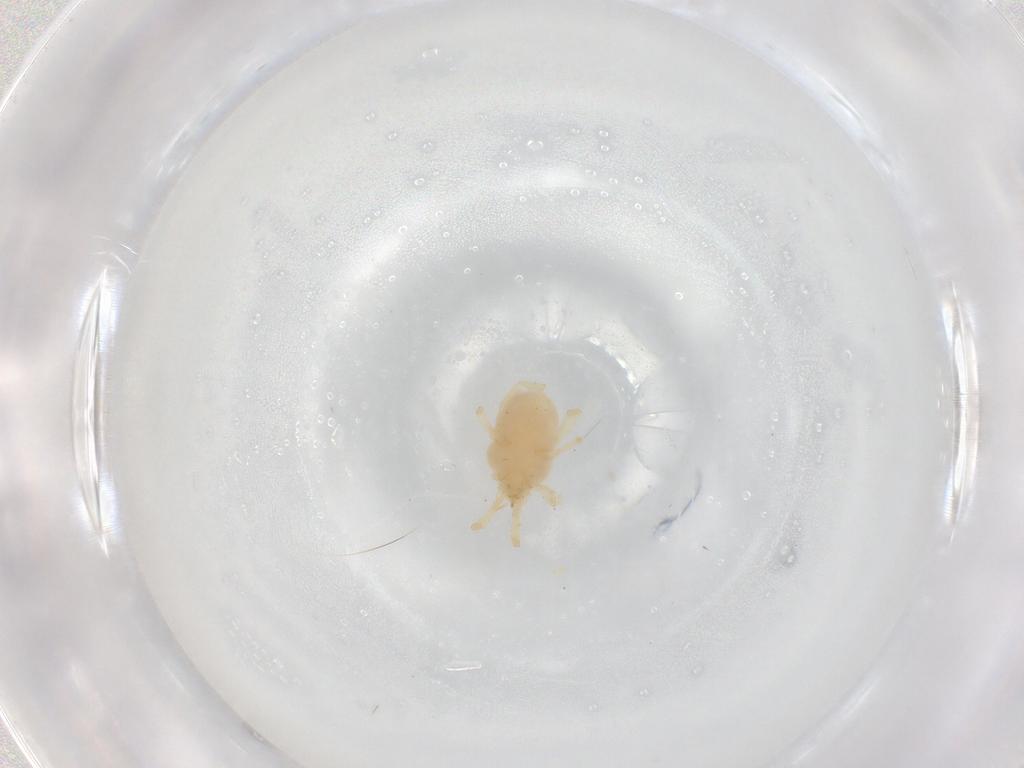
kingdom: Animalia
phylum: Arthropoda
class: Arachnida
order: Trombidiformes
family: Erythraeidae
